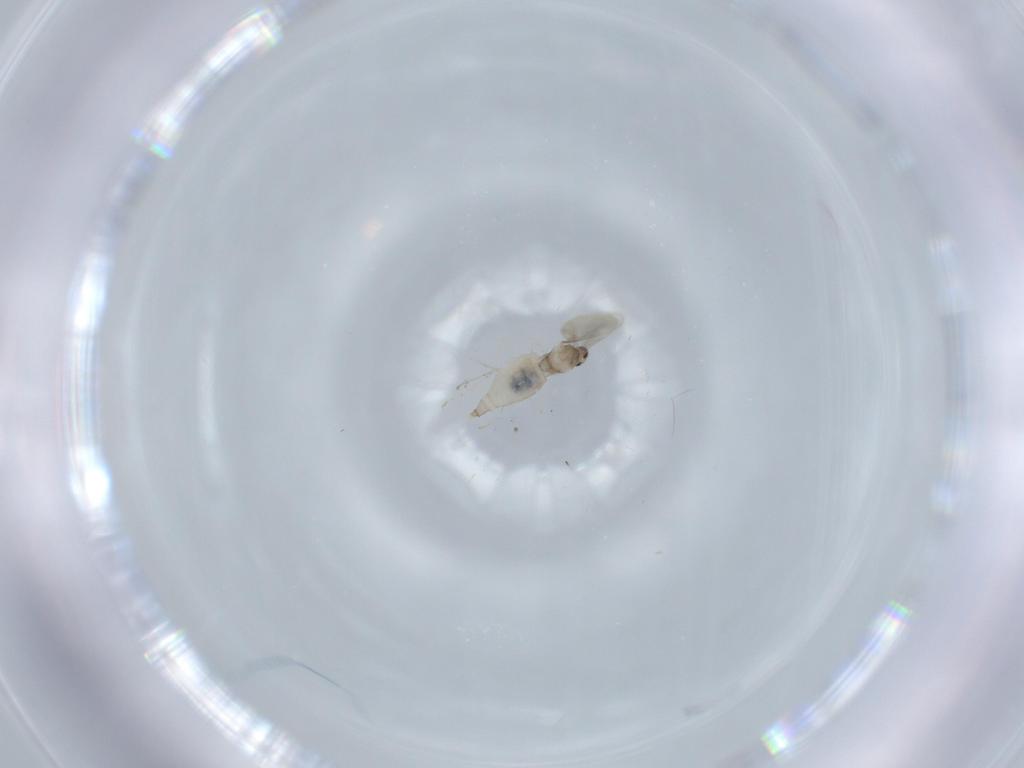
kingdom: Animalia
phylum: Arthropoda
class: Insecta
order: Diptera
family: Cecidomyiidae
